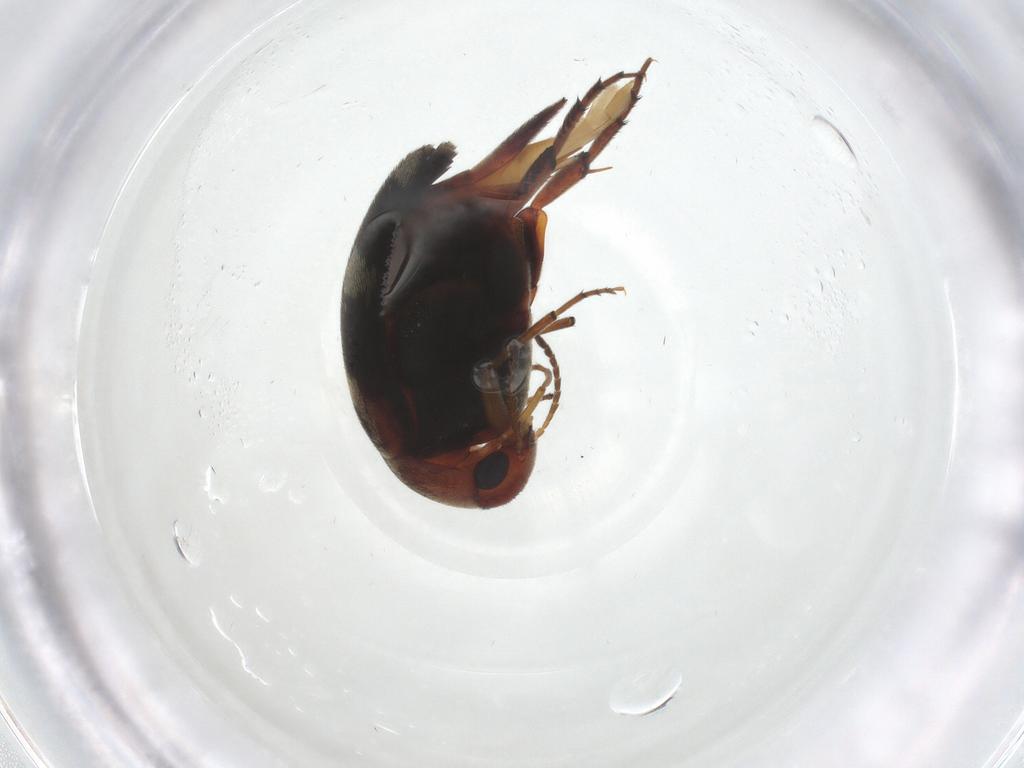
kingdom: Animalia
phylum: Arthropoda
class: Insecta
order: Coleoptera
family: Mordellidae
